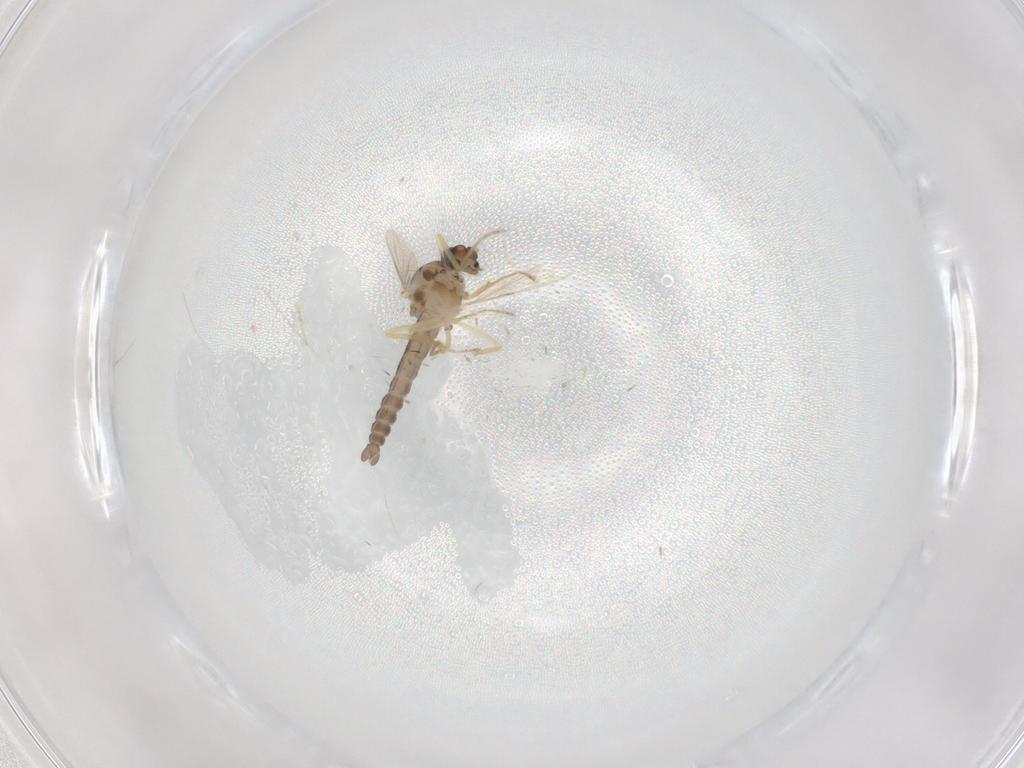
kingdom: Animalia
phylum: Arthropoda
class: Insecta
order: Diptera
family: Ceratopogonidae
